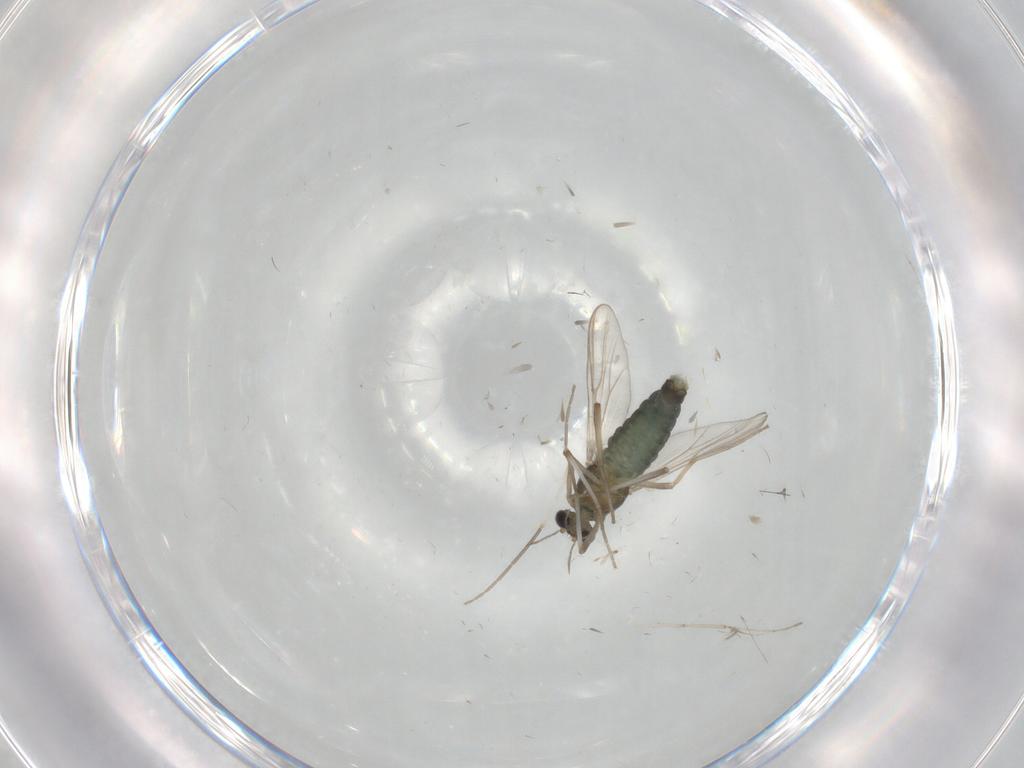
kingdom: Animalia
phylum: Arthropoda
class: Insecta
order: Diptera
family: Chironomidae
